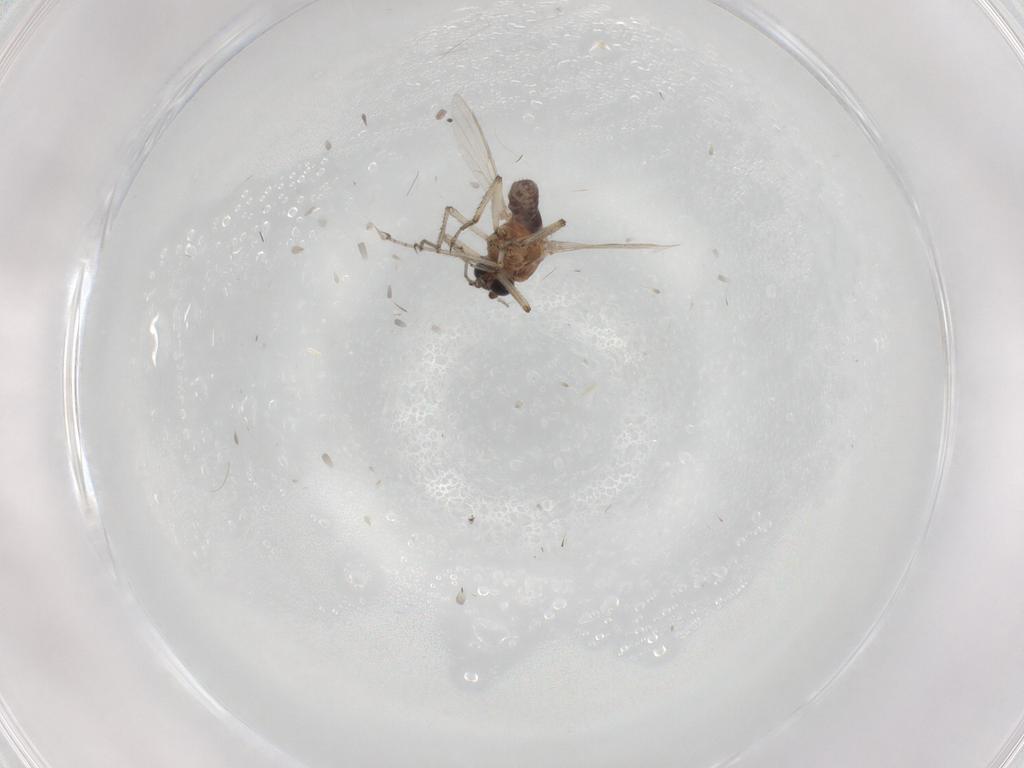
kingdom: Animalia
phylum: Arthropoda
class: Insecta
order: Diptera
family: Ceratopogonidae
